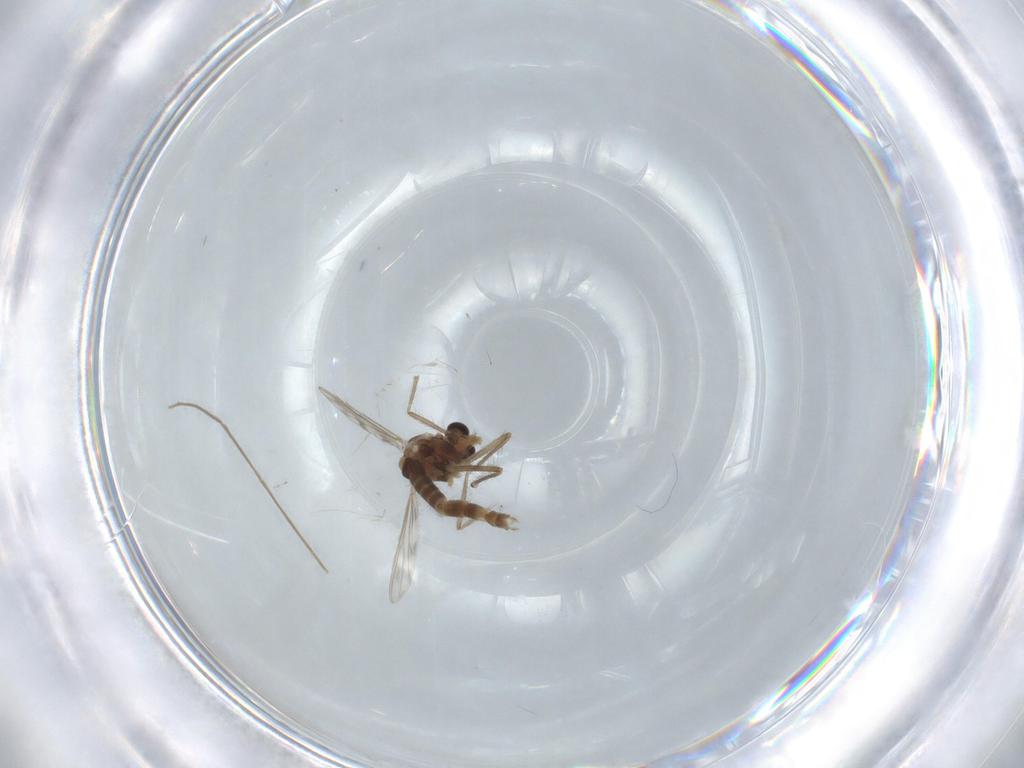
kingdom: Animalia
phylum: Arthropoda
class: Insecta
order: Diptera
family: Chironomidae
